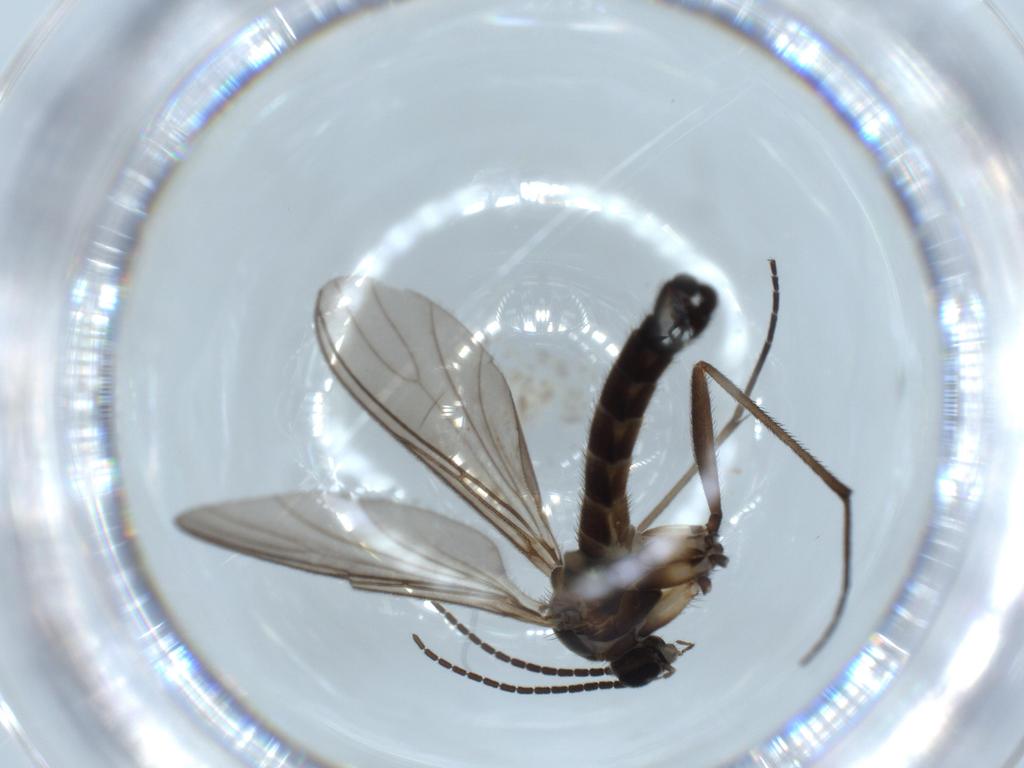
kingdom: Animalia
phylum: Arthropoda
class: Insecta
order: Diptera
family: Sciaridae
